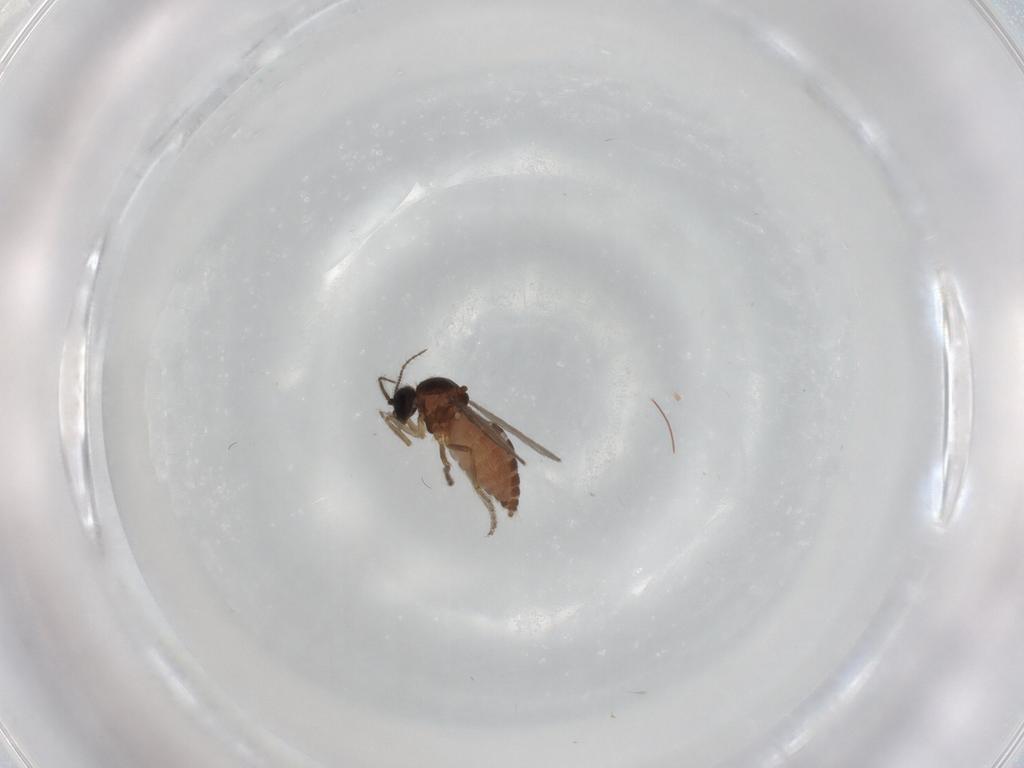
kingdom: Animalia
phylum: Arthropoda
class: Insecta
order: Diptera
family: Ceratopogonidae
